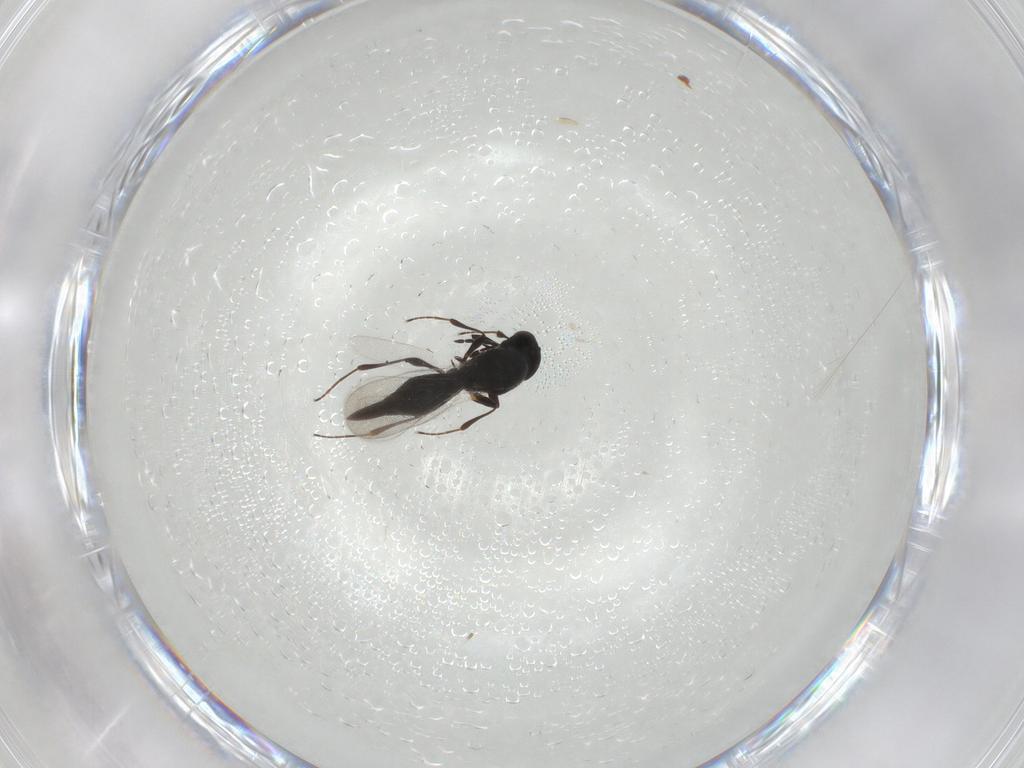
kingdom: Animalia
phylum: Arthropoda
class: Insecta
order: Hymenoptera
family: Platygastridae
